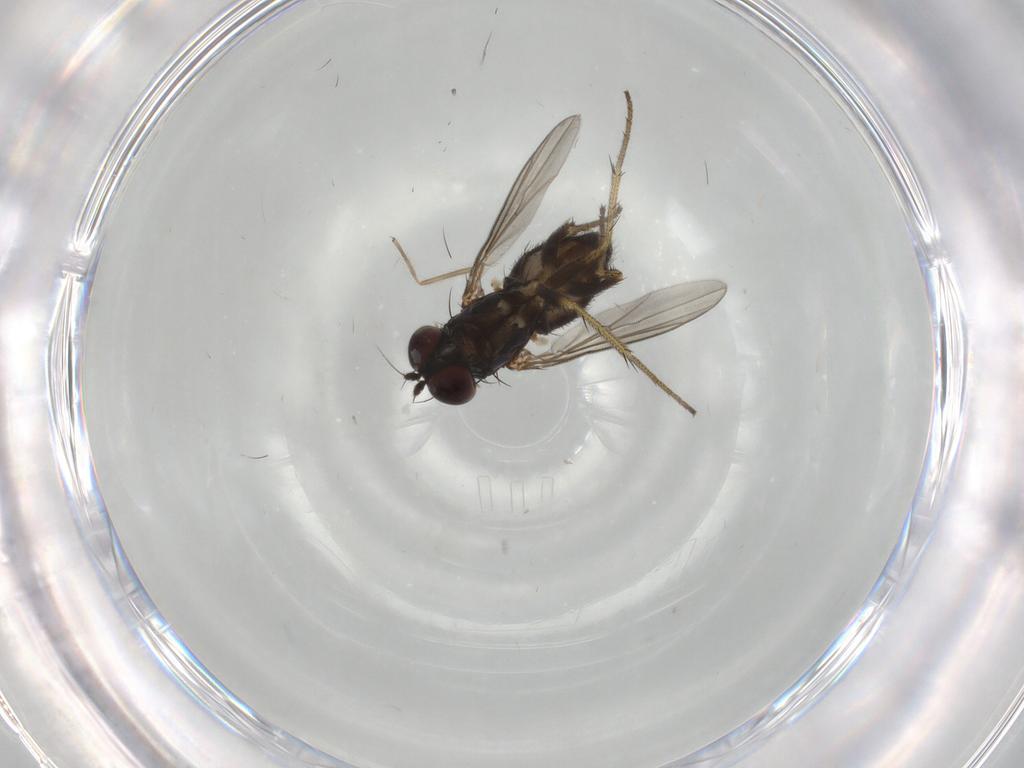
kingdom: Animalia
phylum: Arthropoda
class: Insecta
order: Diptera
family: Dolichopodidae
